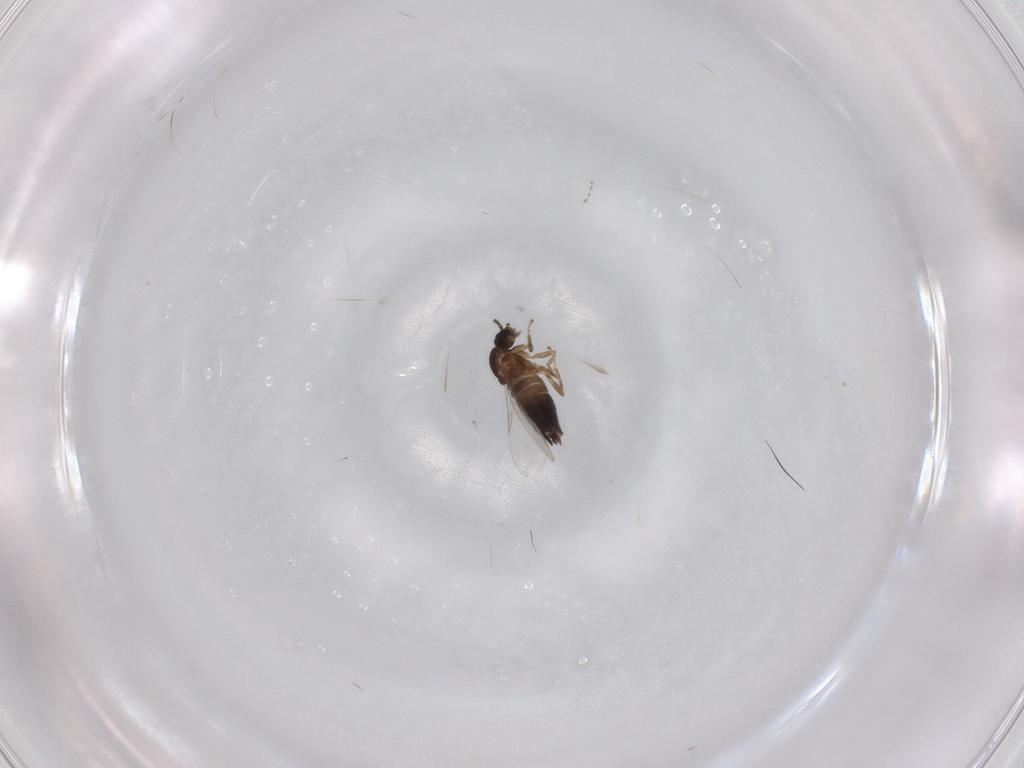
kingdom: Animalia
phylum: Arthropoda
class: Insecta
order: Diptera
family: Scatopsidae
